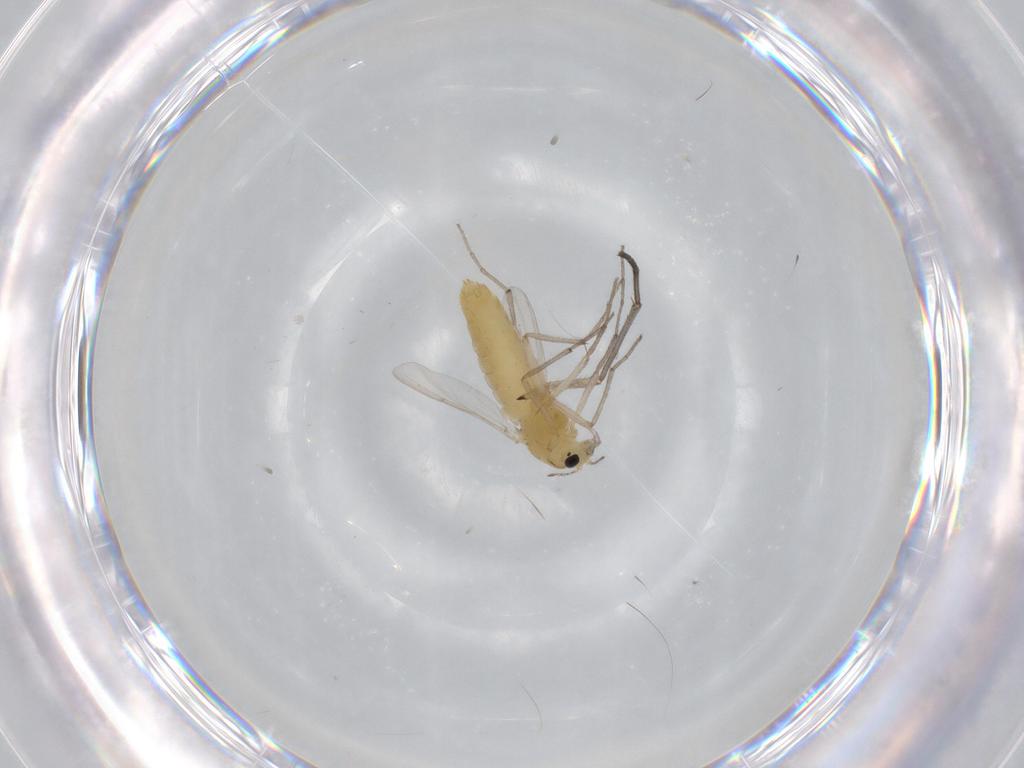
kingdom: Animalia
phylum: Arthropoda
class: Insecta
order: Diptera
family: Chironomidae
